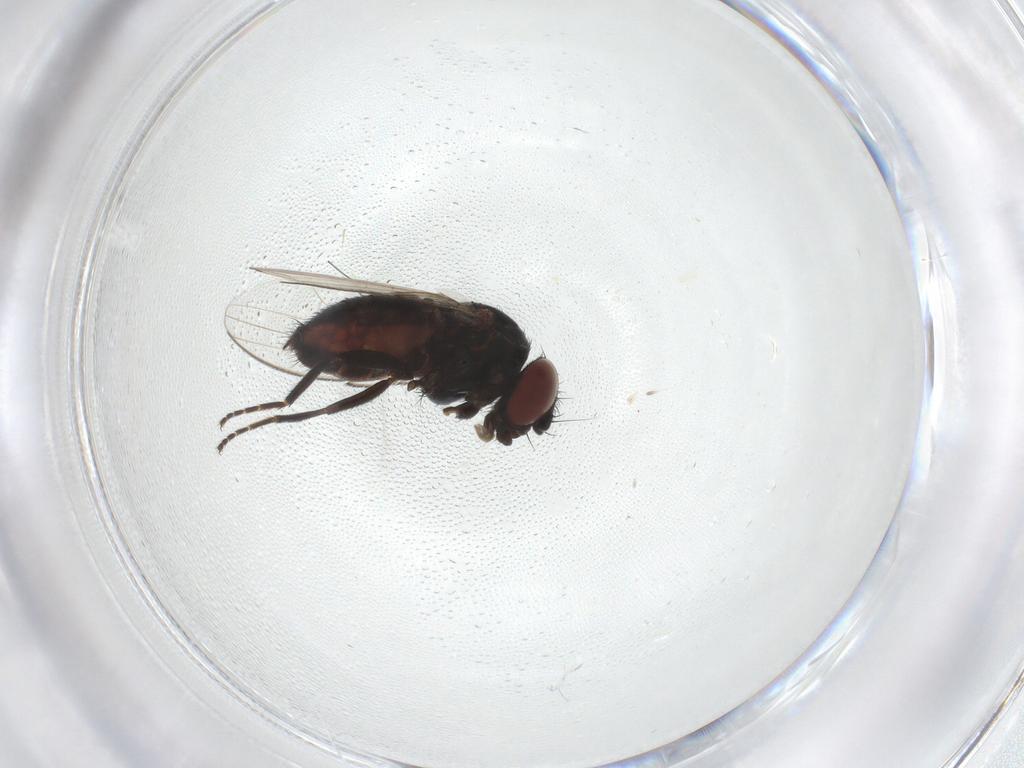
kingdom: Animalia
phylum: Arthropoda
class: Insecta
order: Diptera
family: Milichiidae
